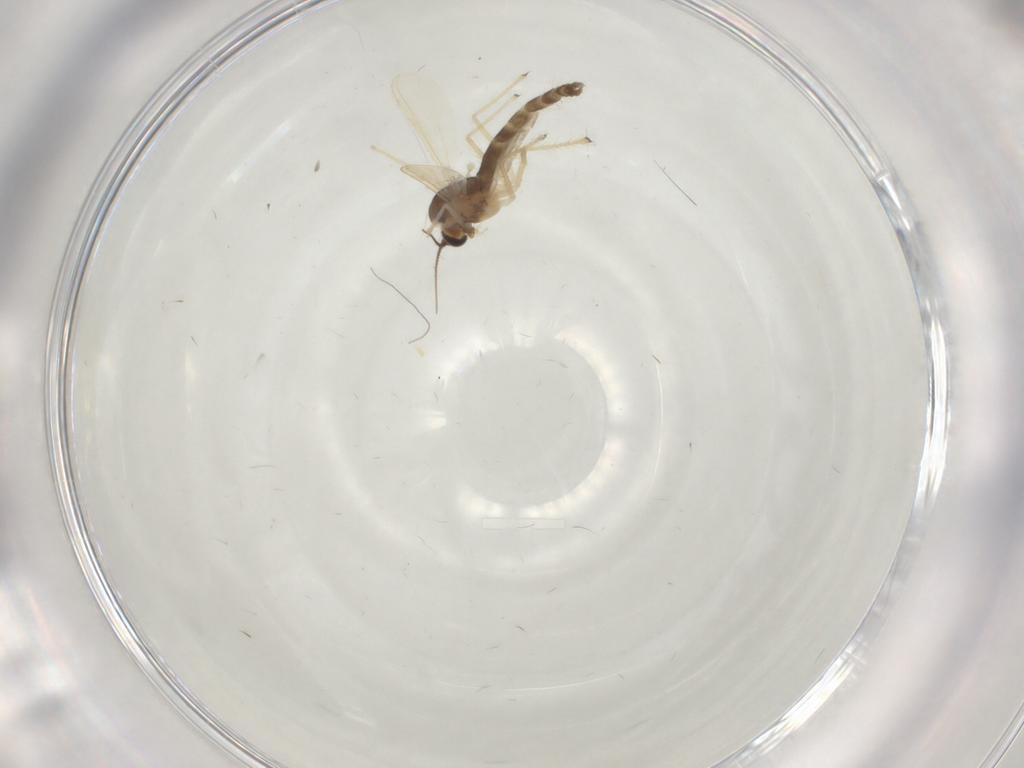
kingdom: Animalia
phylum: Arthropoda
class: Insecta
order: Diptera
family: Chironomidae
